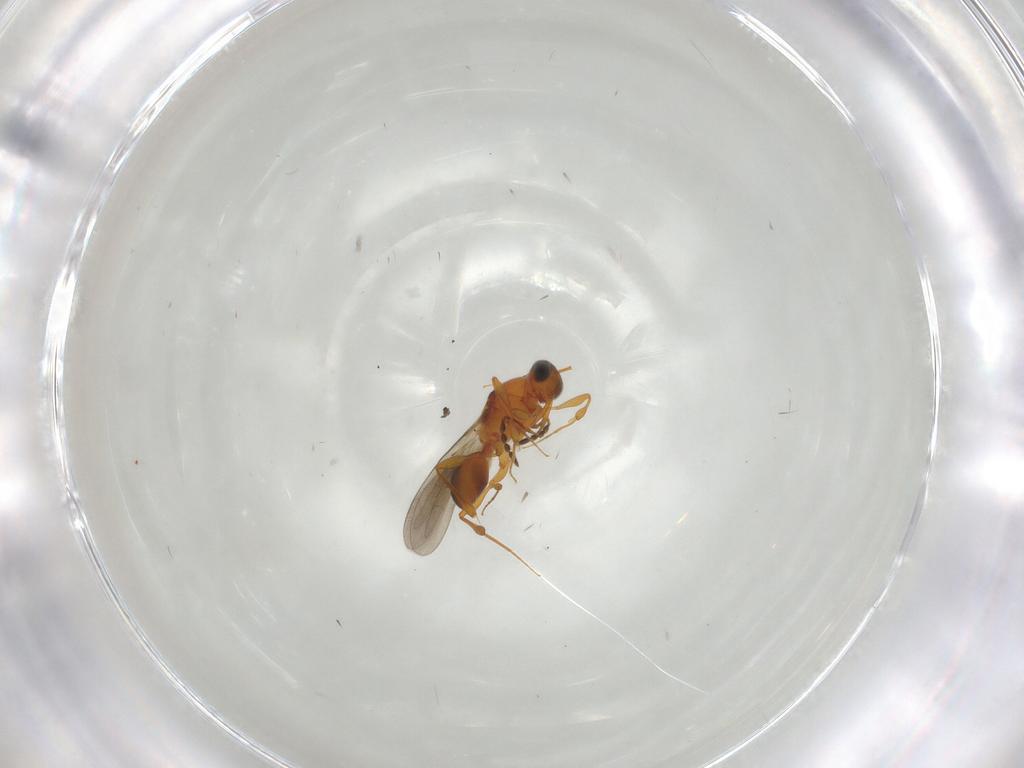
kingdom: Animalia
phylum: Arthropoda
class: Insecta
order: Hymenoptera
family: Platygastridae
